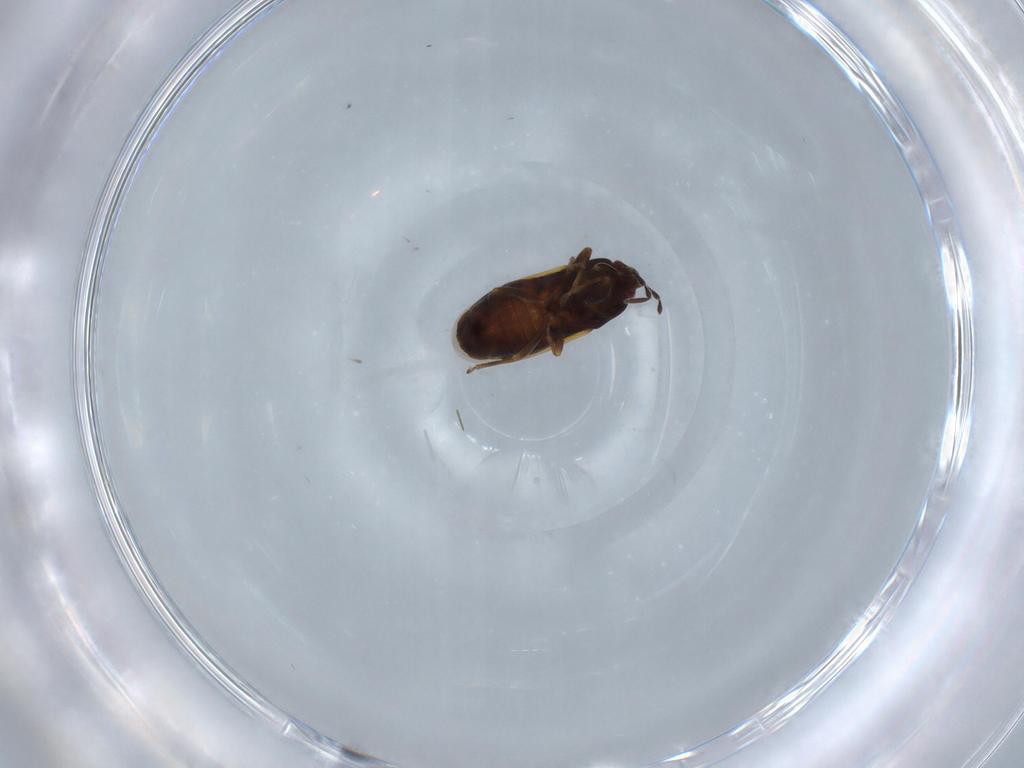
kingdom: Animalia
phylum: Arthropoda
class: Insecta
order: Hemiptera
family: Rhyparochromidae
